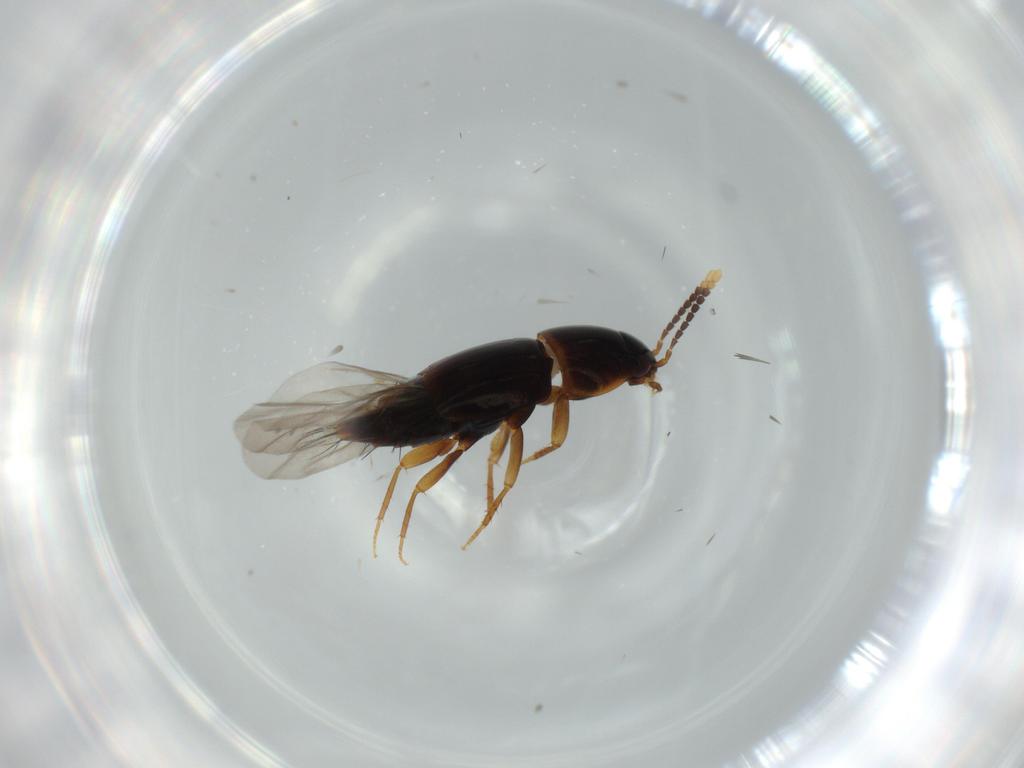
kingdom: Animalia
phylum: Arthropoda
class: Insecta
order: Coleoptera
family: Staphylinidae
